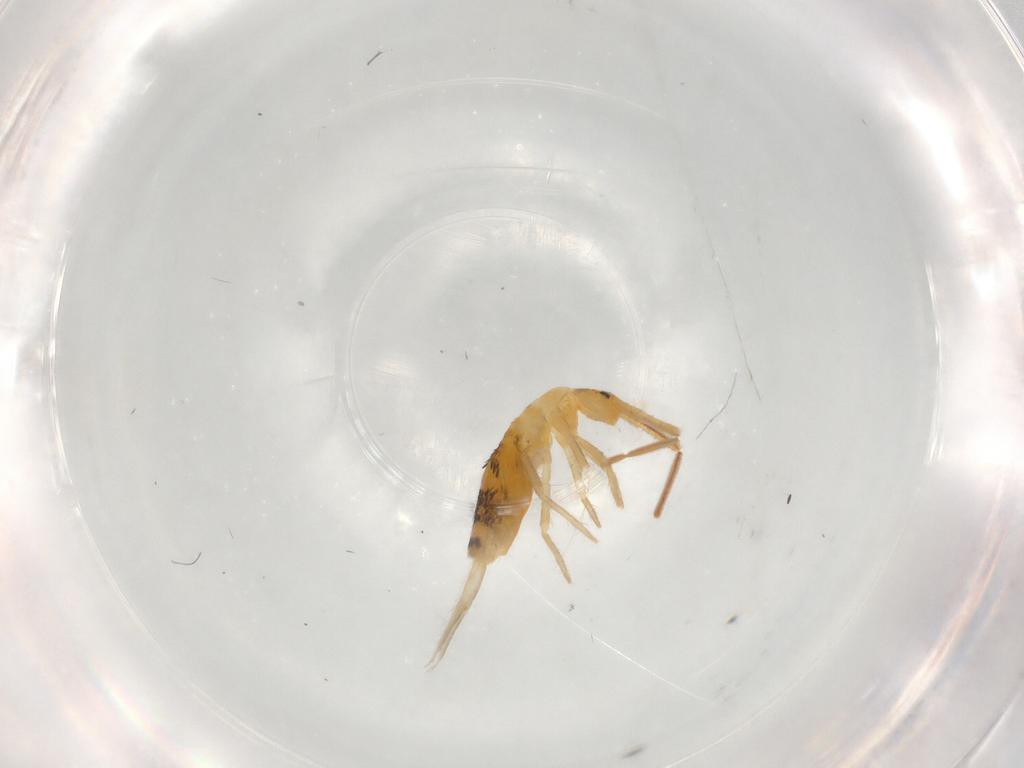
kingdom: Animalia
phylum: Arthropoda
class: Collembola
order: Entomobryomorpha
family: Entomobryidae
